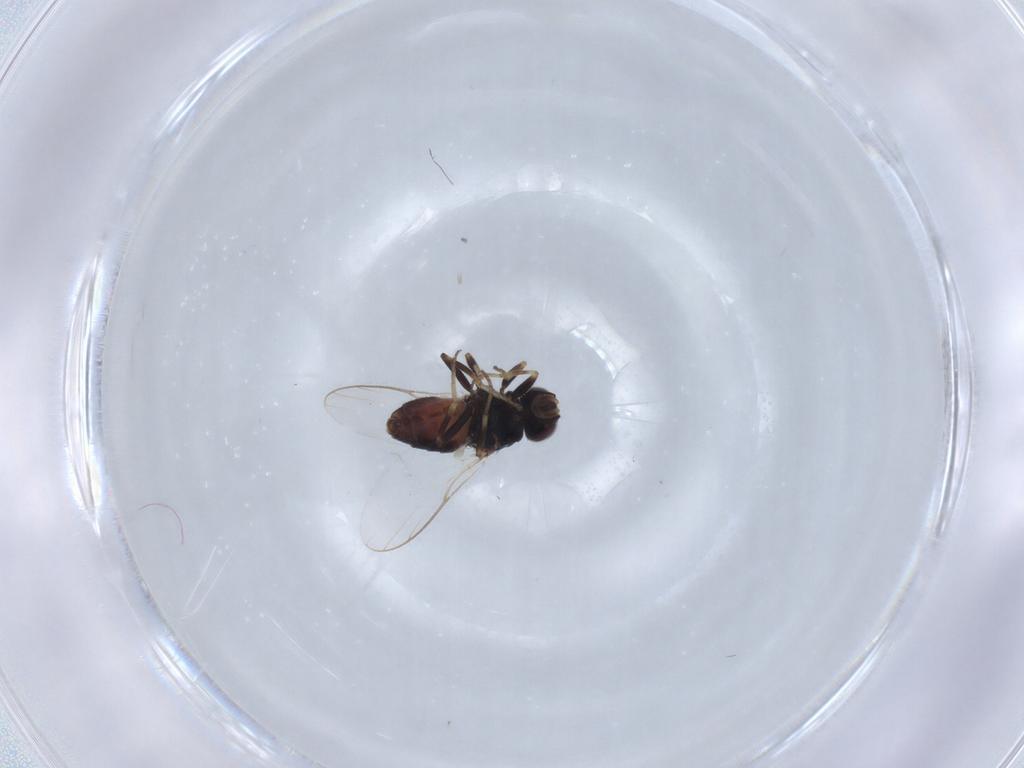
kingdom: Animalia
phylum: Arthropoda
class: Insecta
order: Diptera
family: Chloropidae
